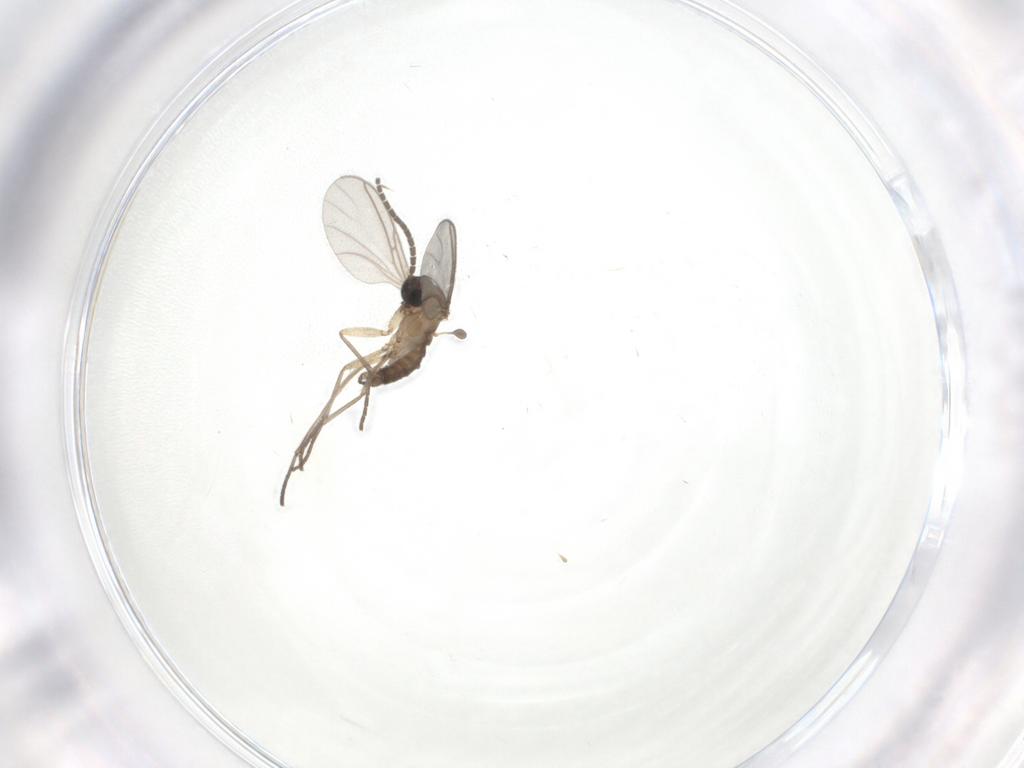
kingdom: Animalia
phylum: Arthropoda
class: Insecta
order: Diptera
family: Sciaridae
